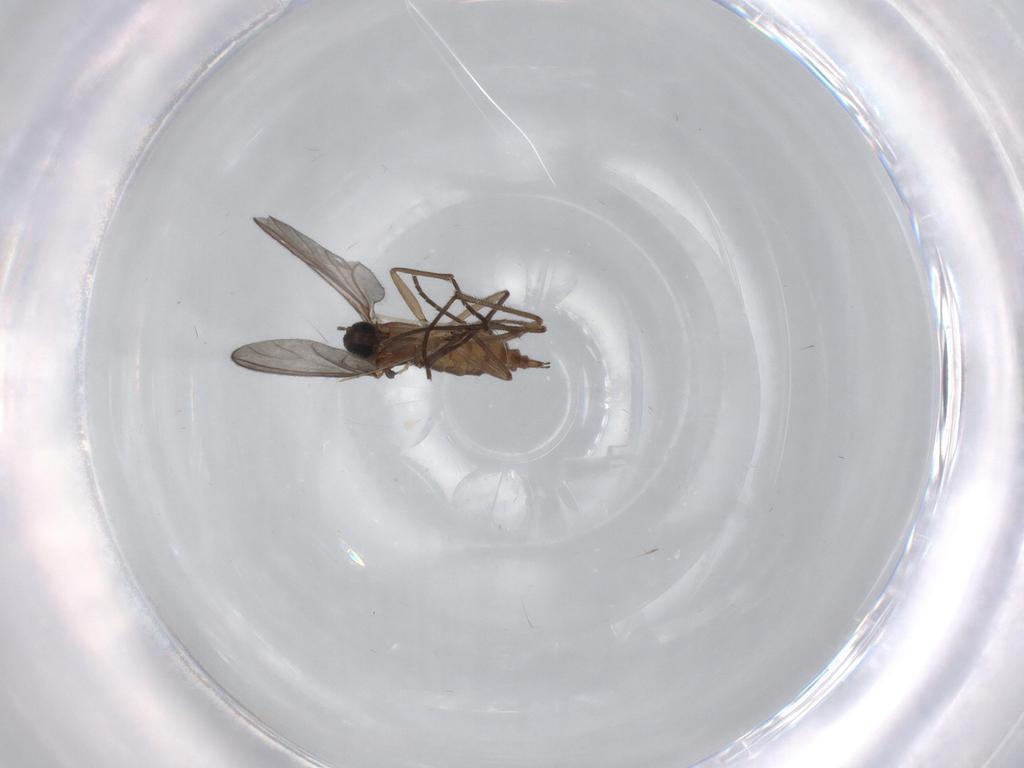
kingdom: Animalia
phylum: Arthropoda
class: Insecta
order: Diptera
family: Sciaridae
